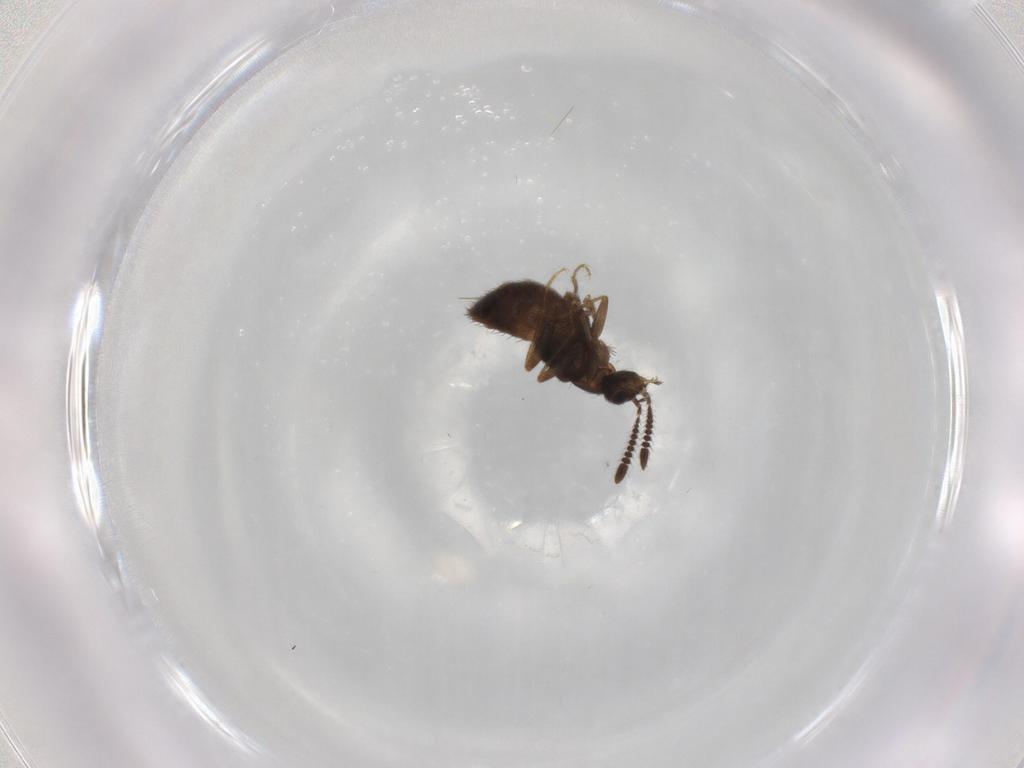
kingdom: Animalia
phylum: Arthropoda
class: Insecta
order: Coleoptera
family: Staphylinidae
